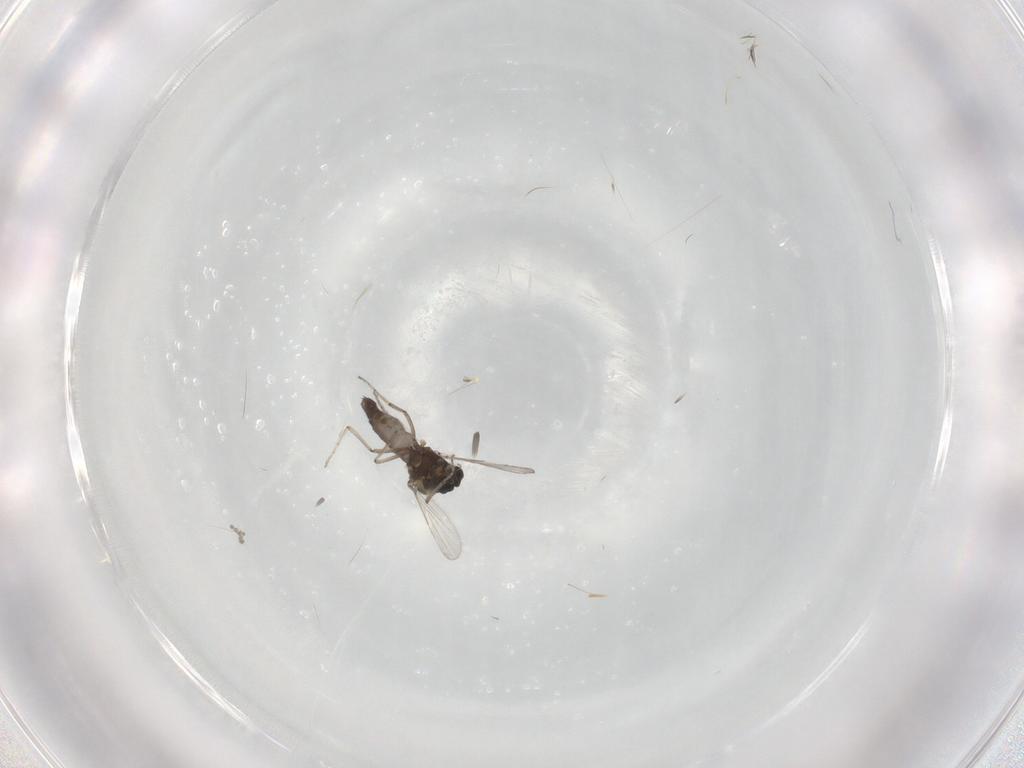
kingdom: Animalia
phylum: Arthropoda
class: Insecta
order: Diptera
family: Ceratopogonidae
